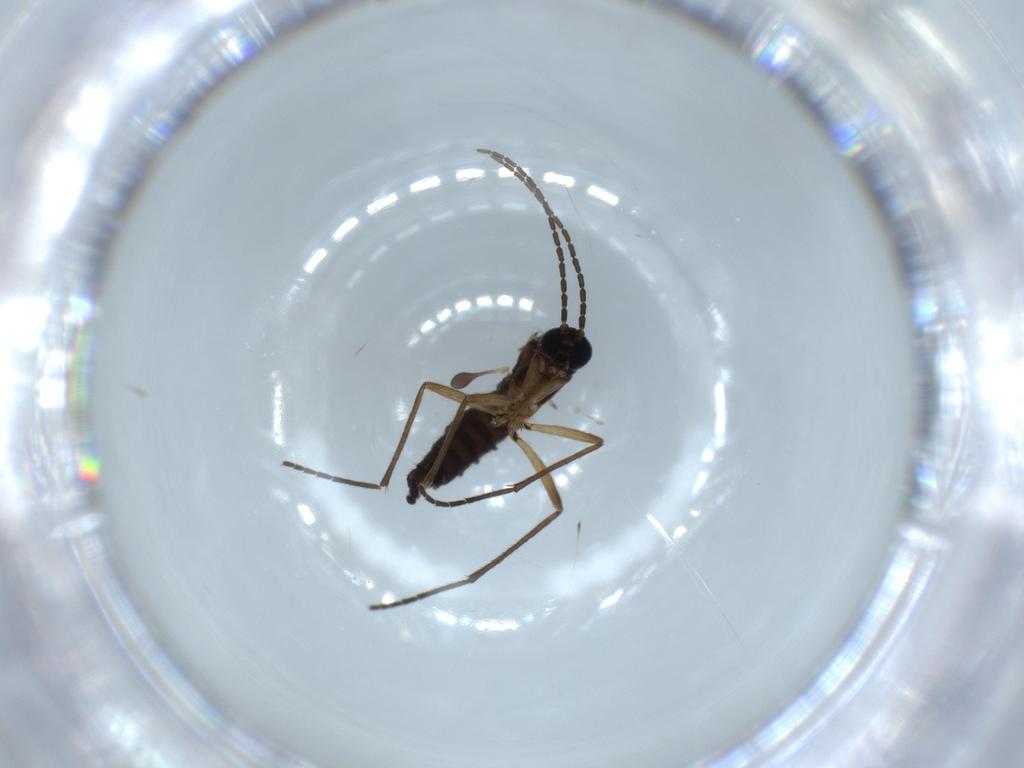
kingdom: Animalia
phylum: Arthropoda
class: Insecta
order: Diptera
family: Sciaridae
